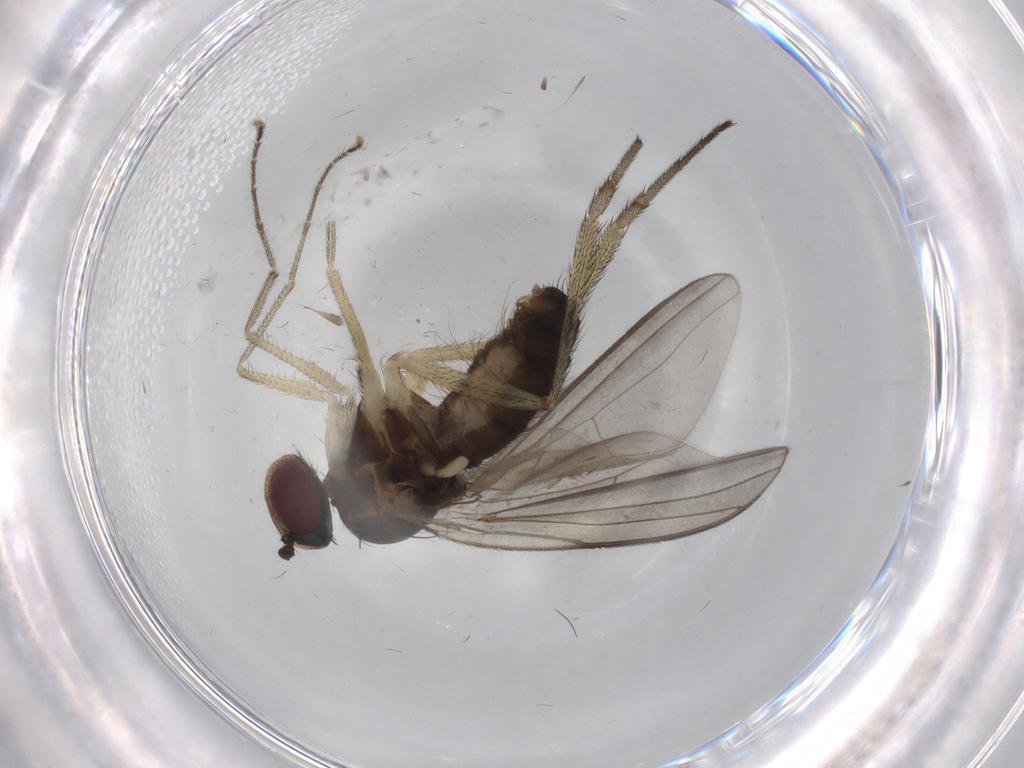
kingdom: Animalia
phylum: Arthropoda
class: Insecta
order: Diptera
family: Dolichopodidae
